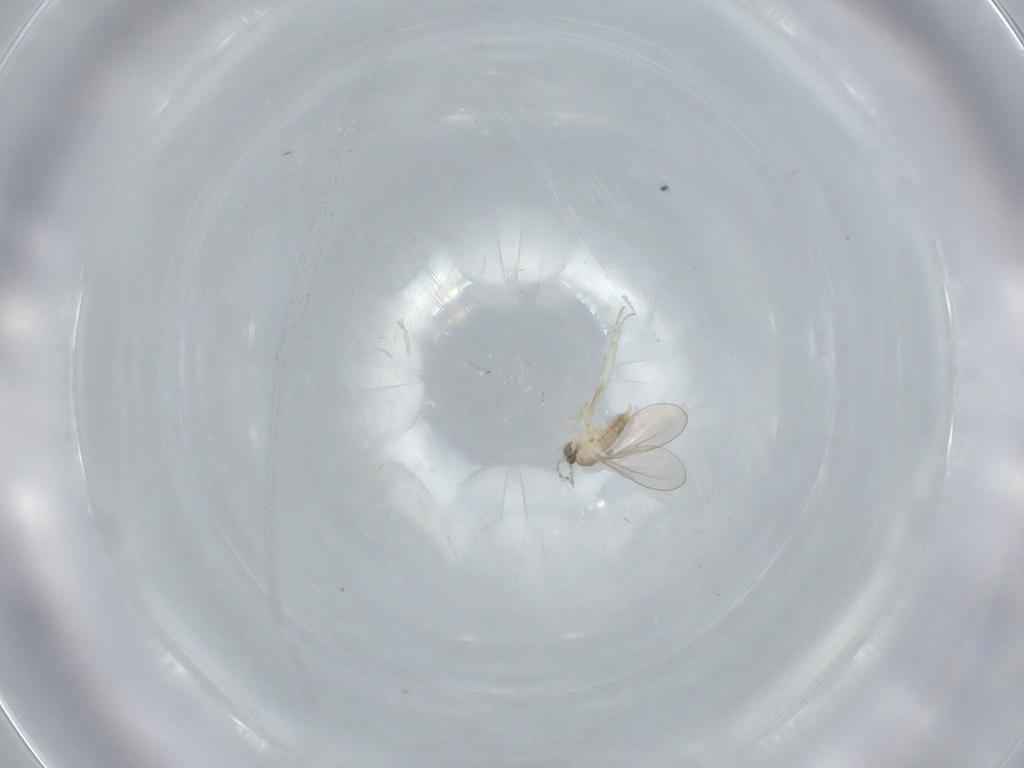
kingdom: Animalia
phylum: Arthropoda
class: Insecta
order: Diptera
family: Cecidomyiidae
